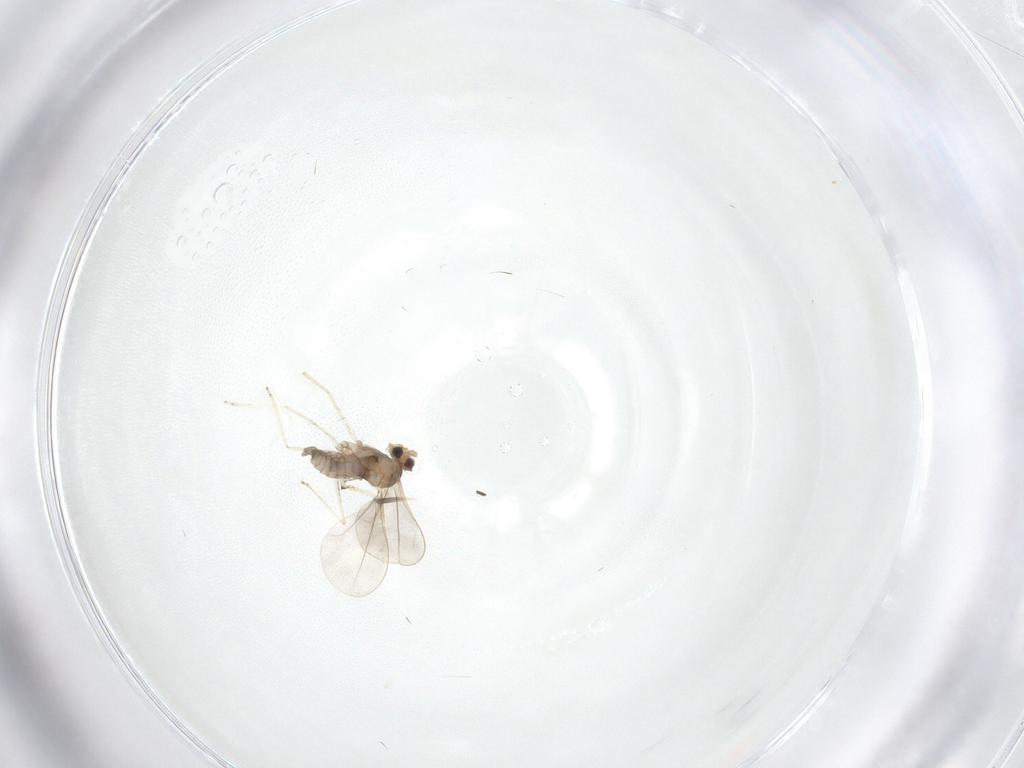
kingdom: Animalia
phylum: Arthropoda
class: Insecta
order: Diptera
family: Cecidomyiidae
